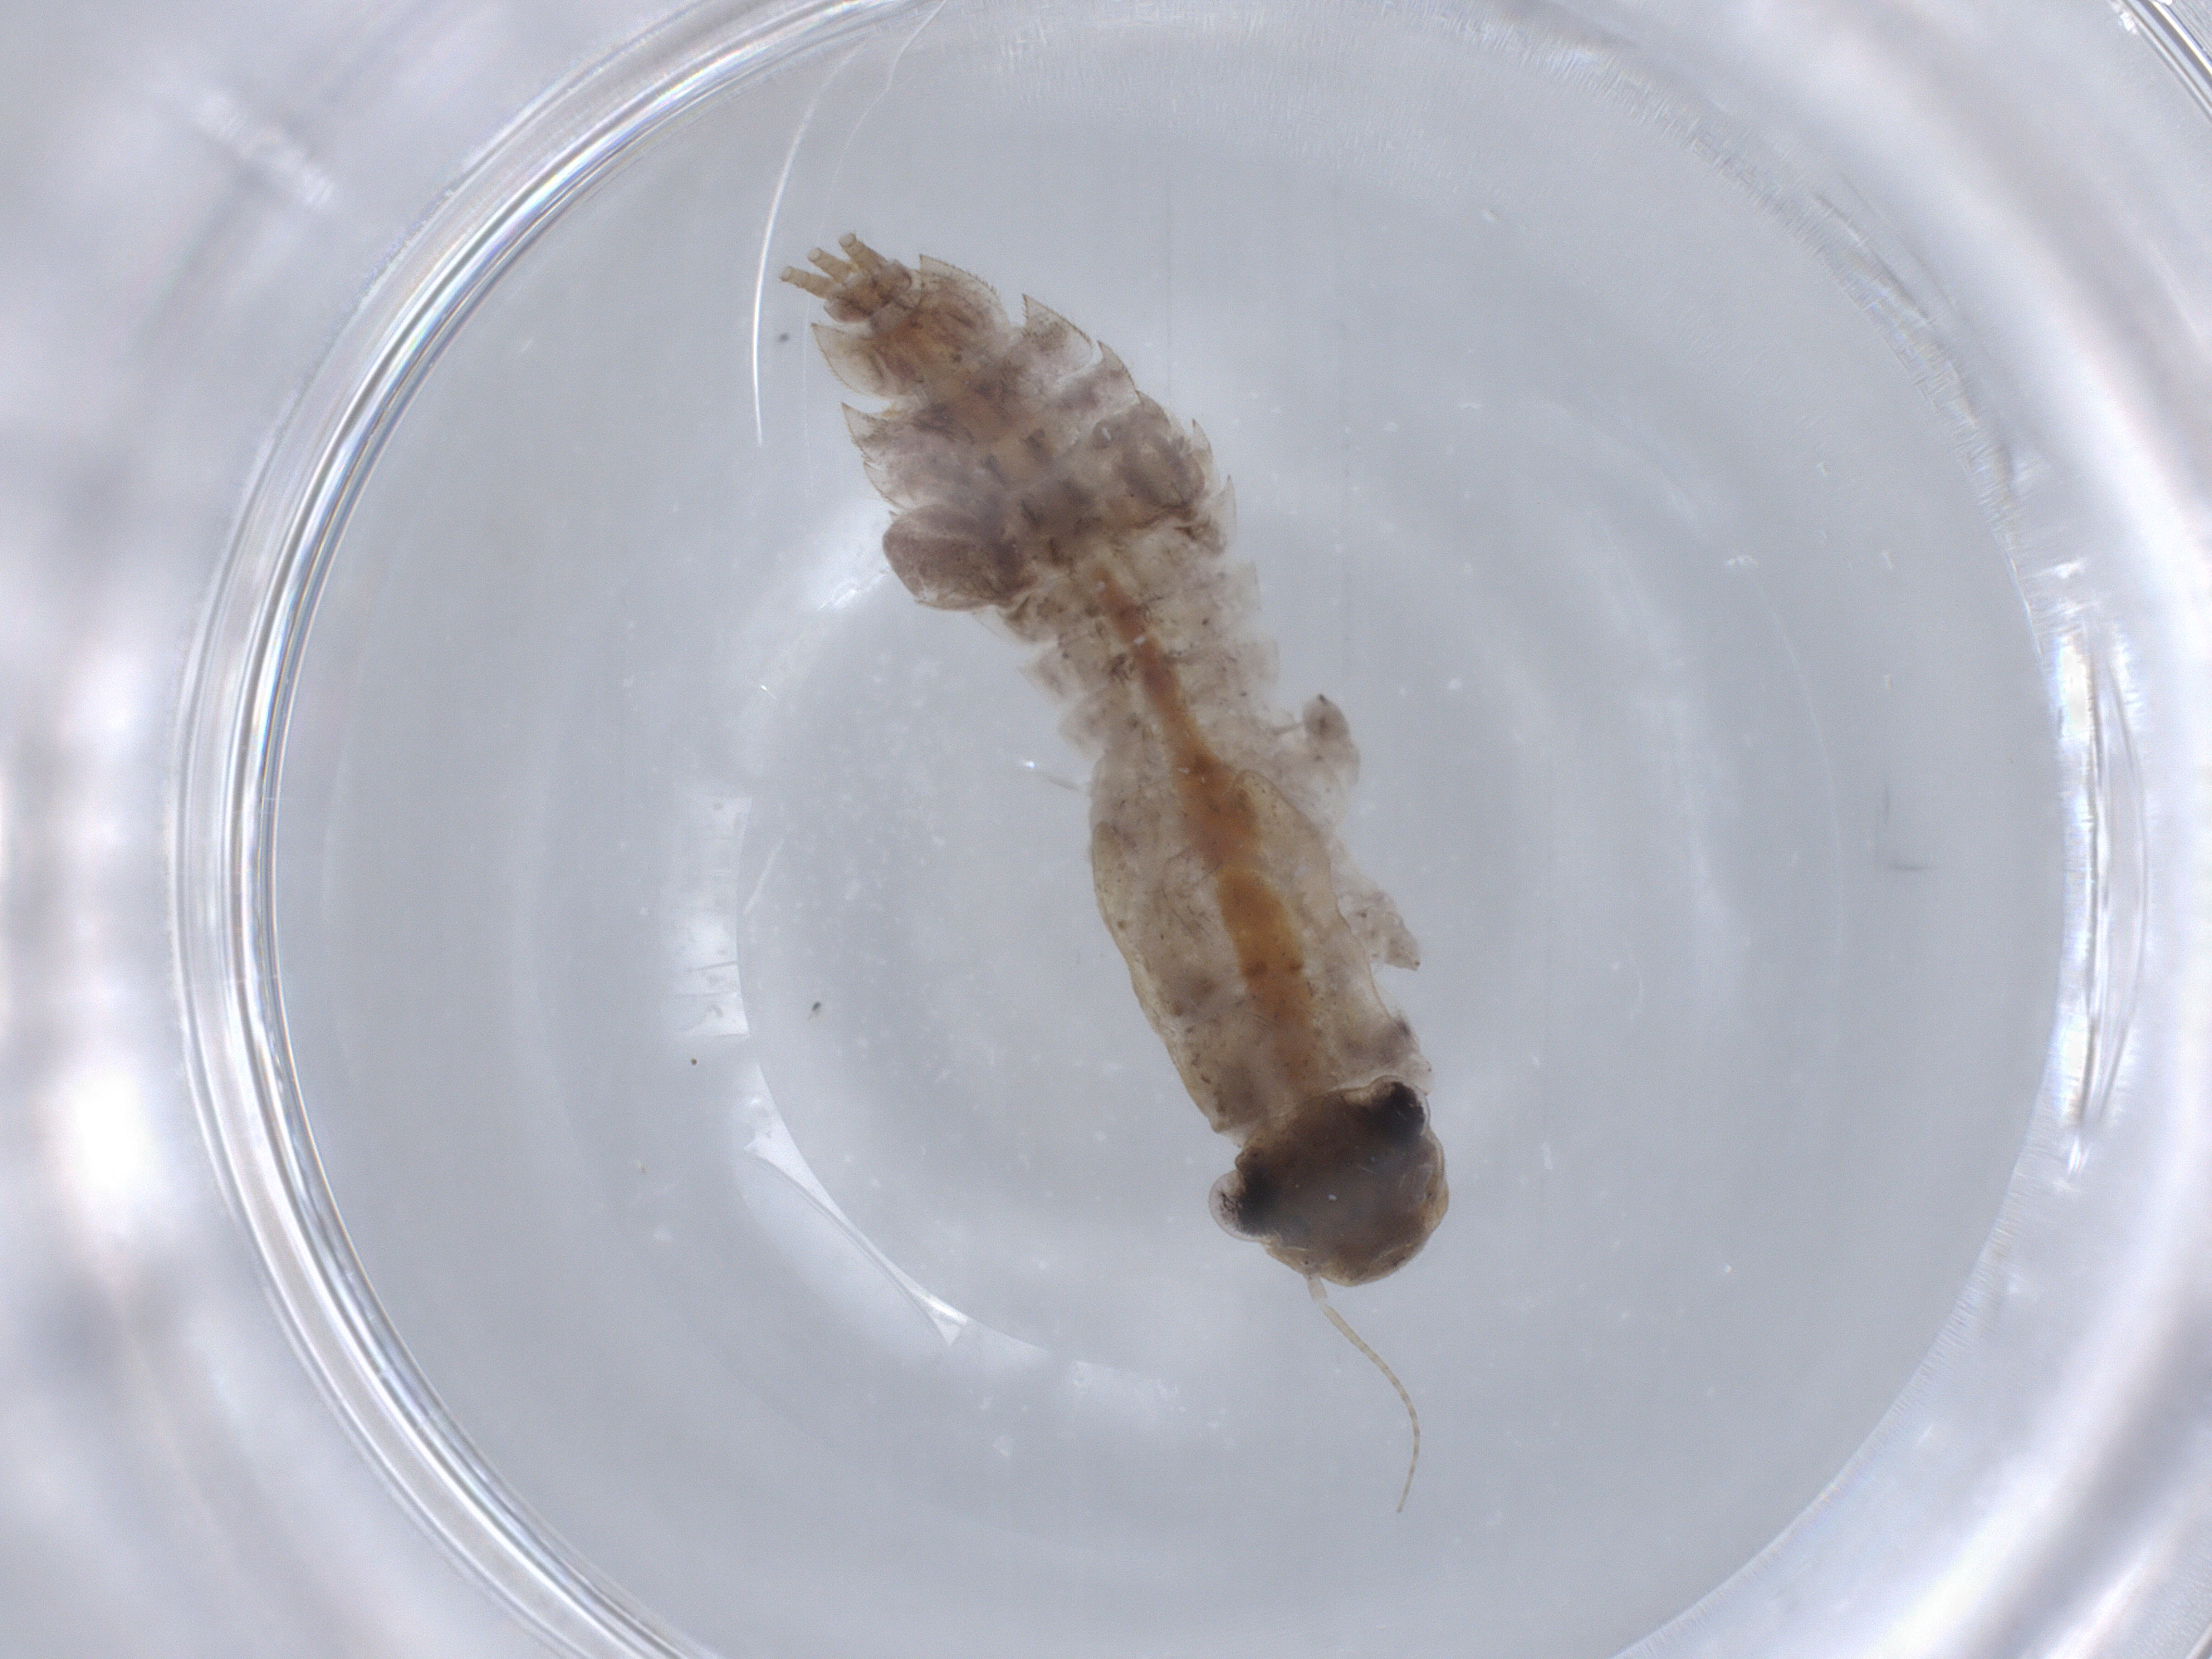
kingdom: Animalia
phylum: Arthropoda
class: Insecta
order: Ephemeroptera
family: Ephemerellidae
